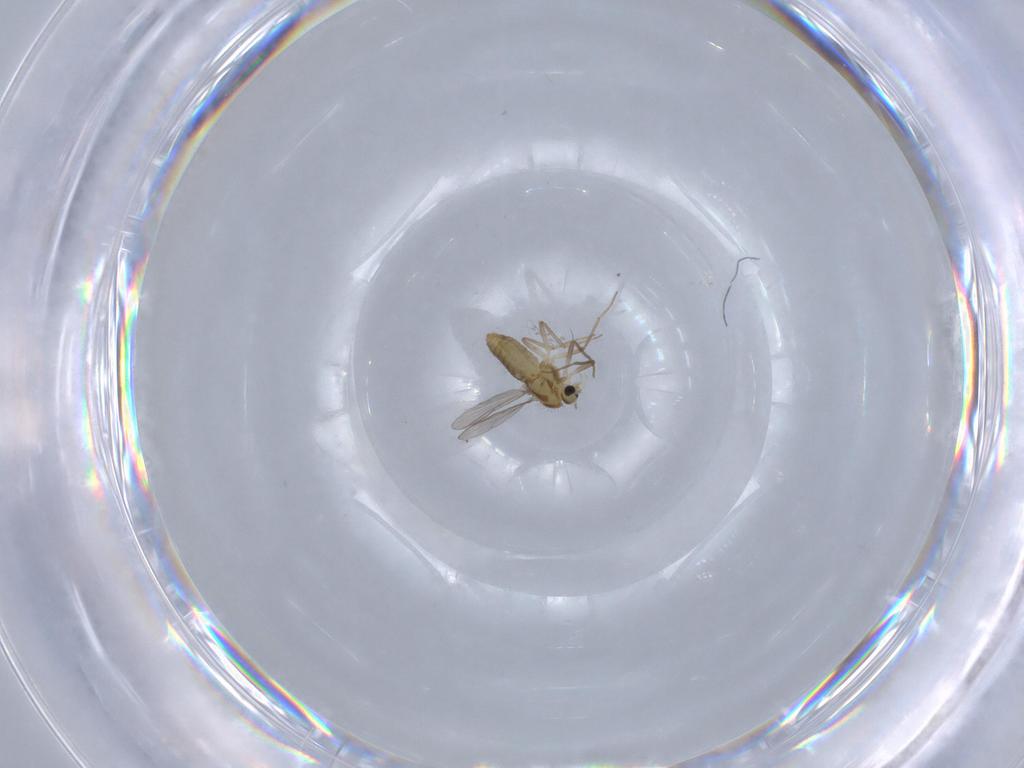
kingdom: Animalia
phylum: Arthropoda
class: Insecta
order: Diptera
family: Chironomidae
